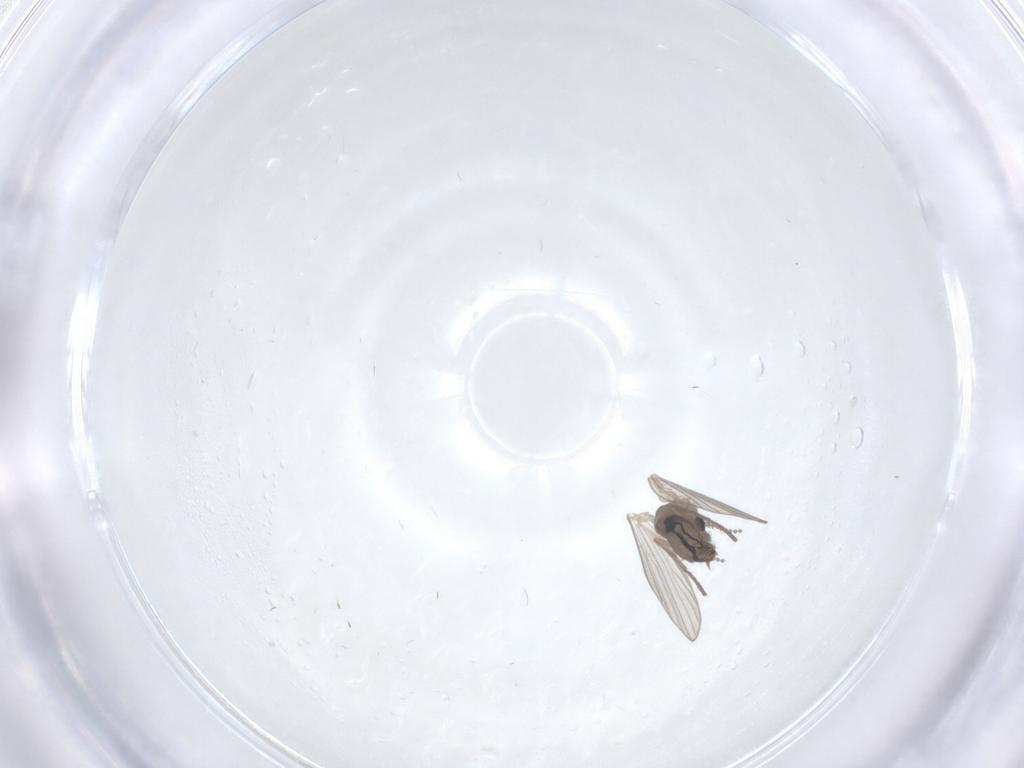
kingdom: Animalia
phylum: Arthropoda
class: Insecta
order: Diptera
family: Psychodidae
